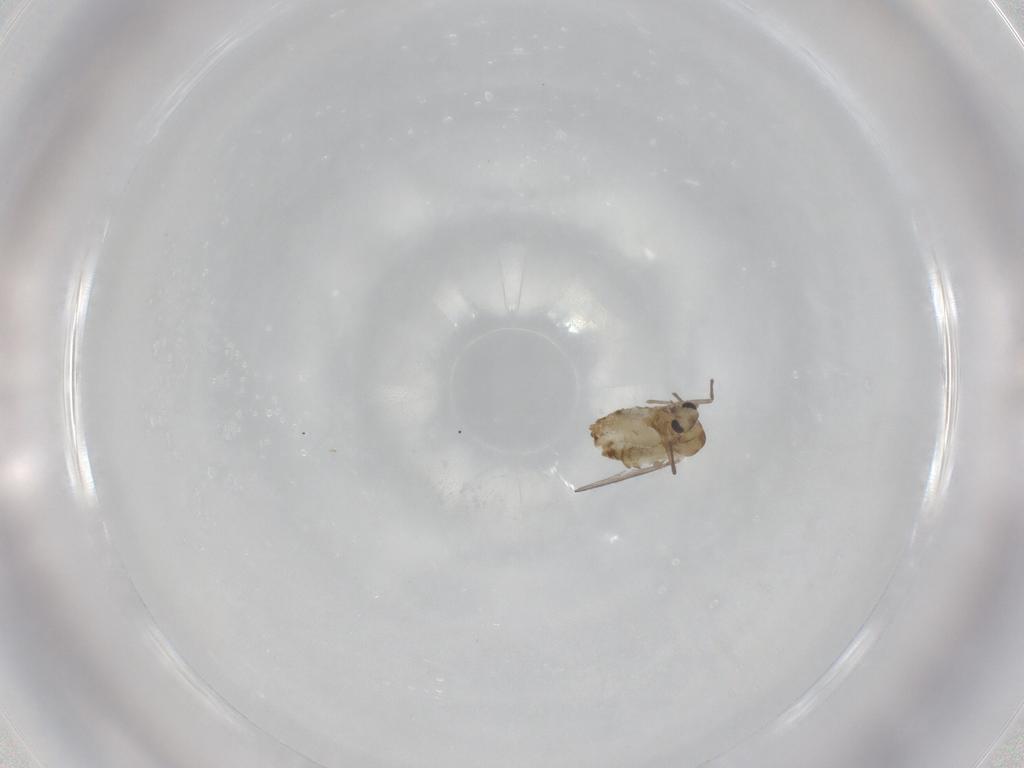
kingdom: Animalia
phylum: Arthropoda
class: Insecta
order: Diptera
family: Chironomidae
